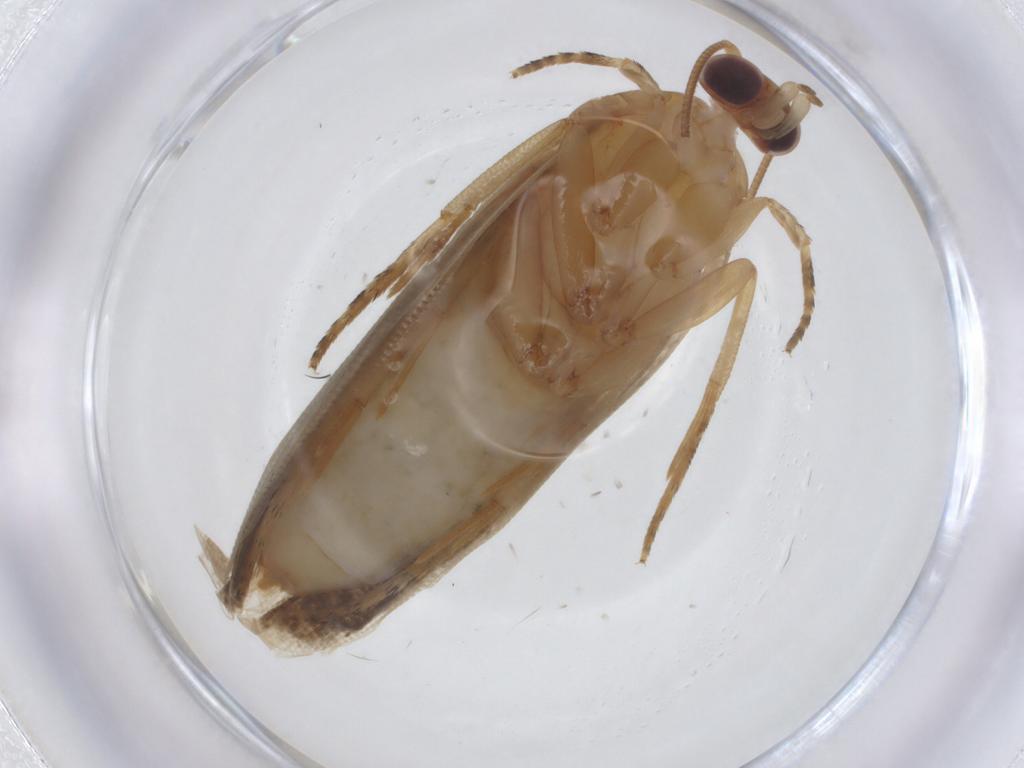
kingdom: Animalia
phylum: Arthropoda
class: Insecta
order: Lepidoptera
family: Tortricidae
